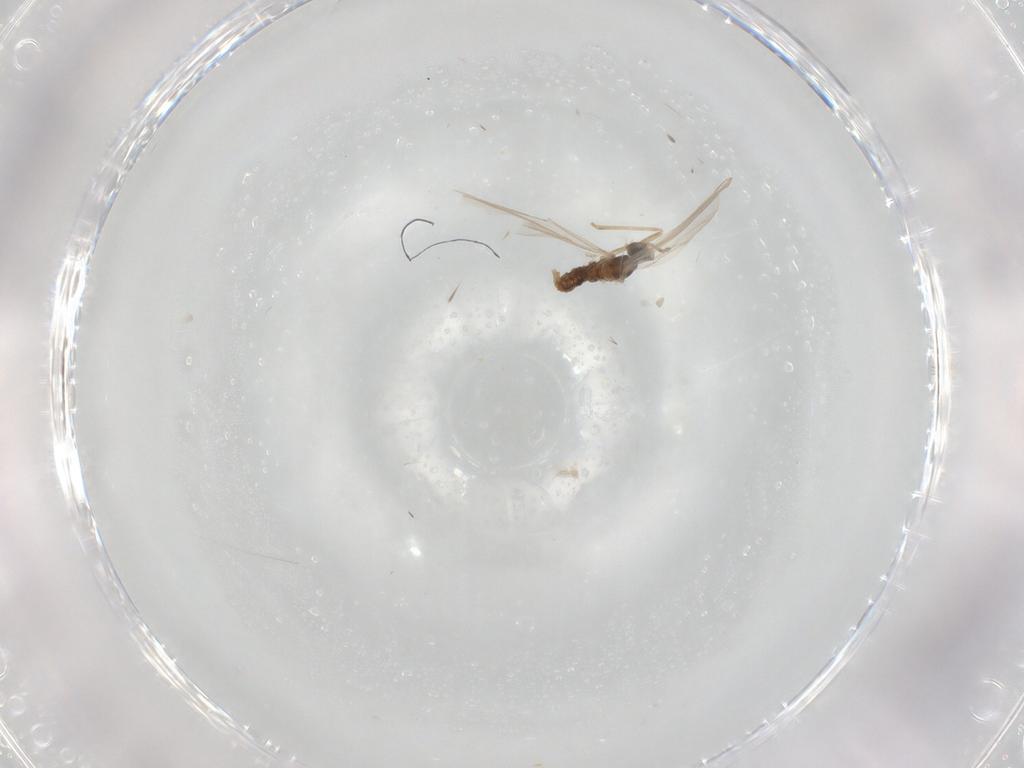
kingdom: Animalia
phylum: Arthropoda
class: Insecta
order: Diptera
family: Cecidomyiidae
